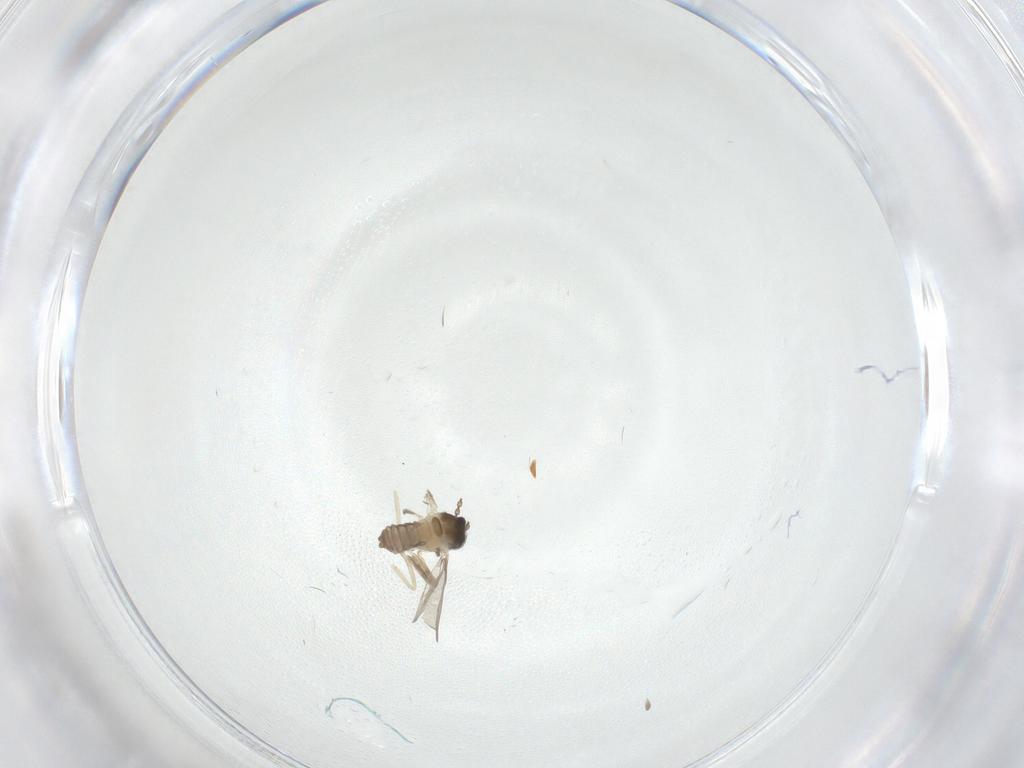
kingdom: Animalia
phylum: Arthropoda
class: Insecta
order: Diptera
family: Cecidomyiidae
